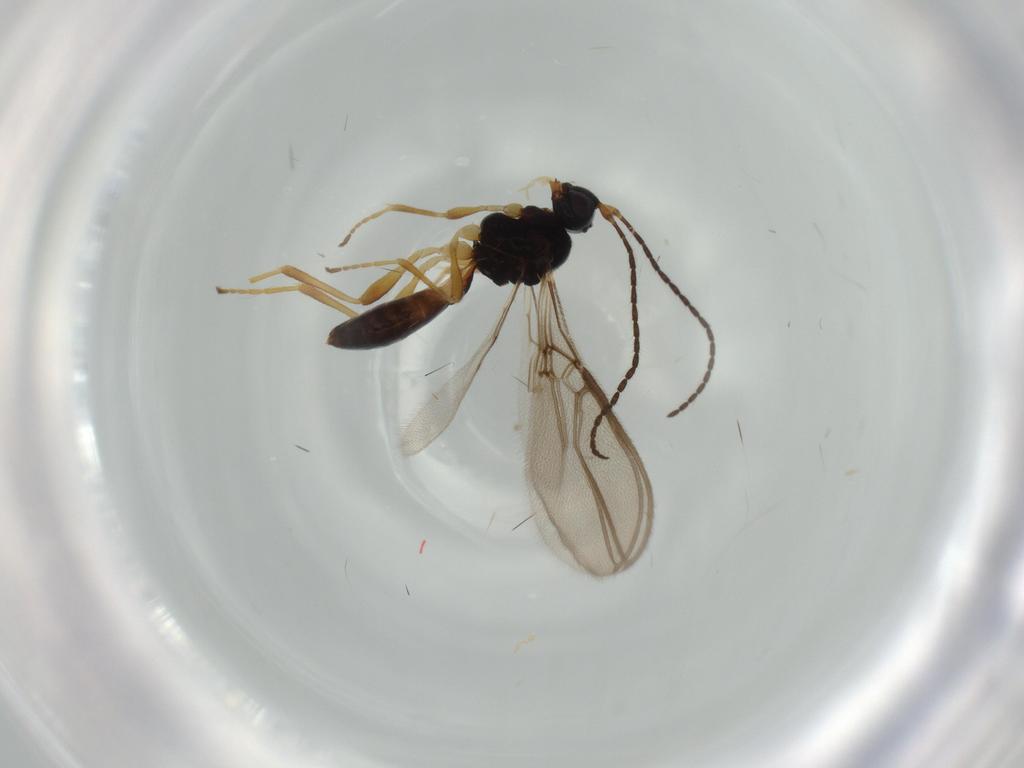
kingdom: Animalia
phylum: Arthropoda
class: Insecta
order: Hymenoptera
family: Braconidae
